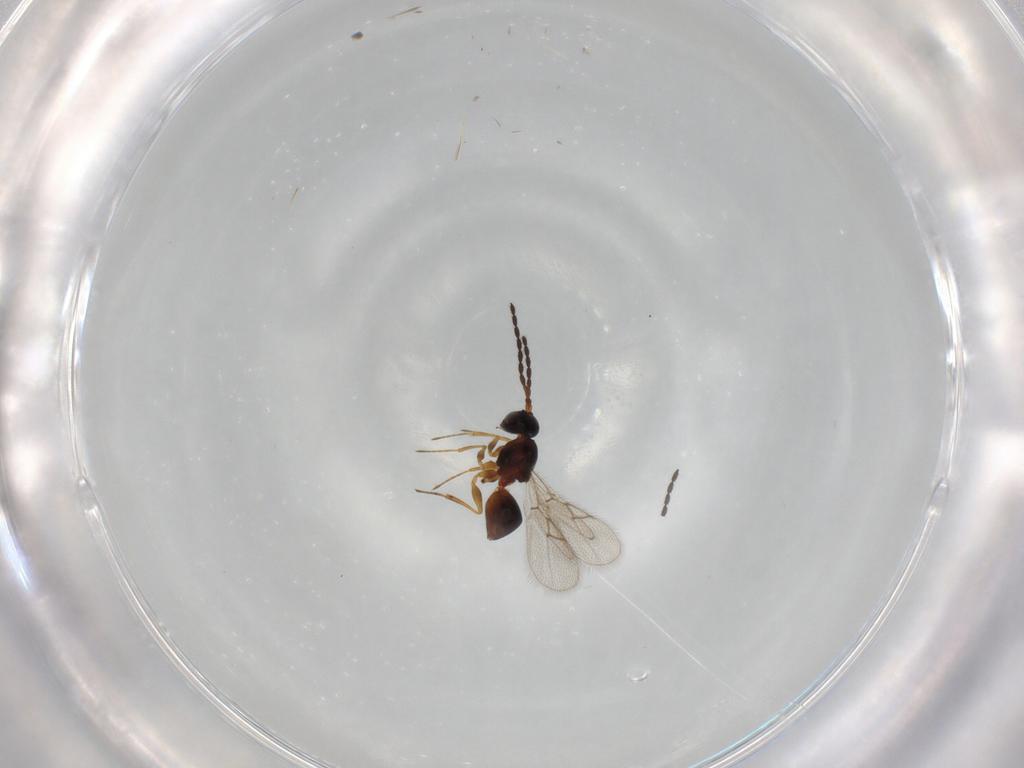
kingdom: Animalia
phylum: Arthropoda
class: Insecta
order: Hymenoptera
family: Figitidae
